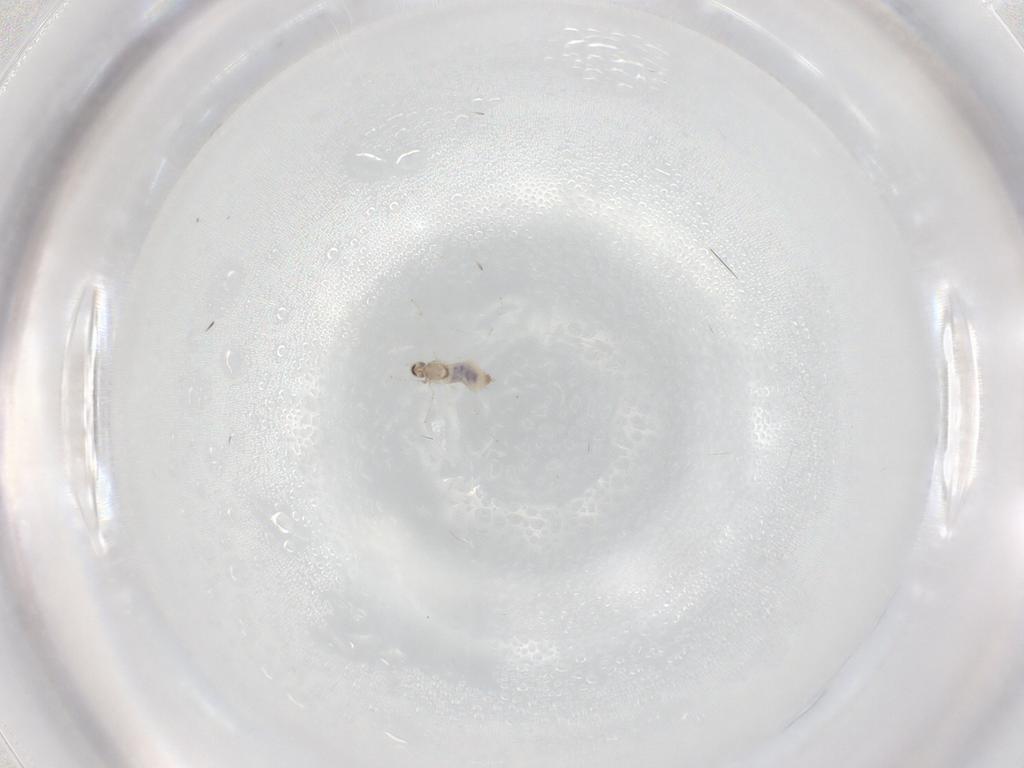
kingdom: Animalia
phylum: Arthropoda
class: Insecta
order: Diptera
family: Cecidomyiidae
